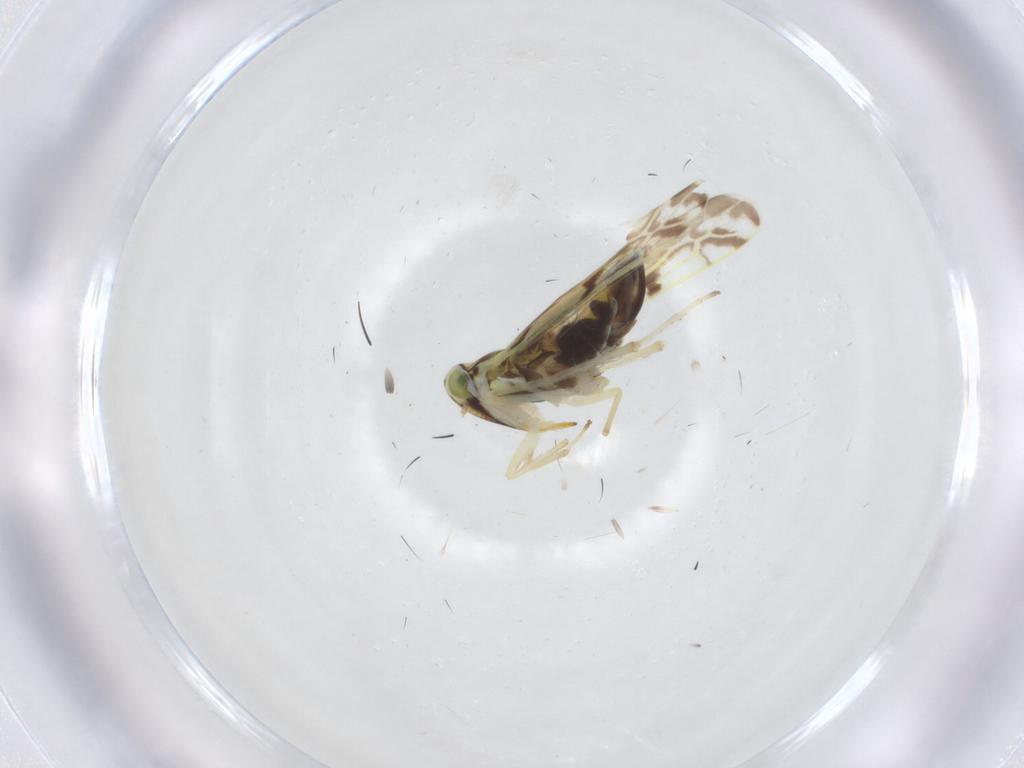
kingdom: Animalia
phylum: Arthropoda
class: Insecta
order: Hemiptera
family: Cicadellidae
